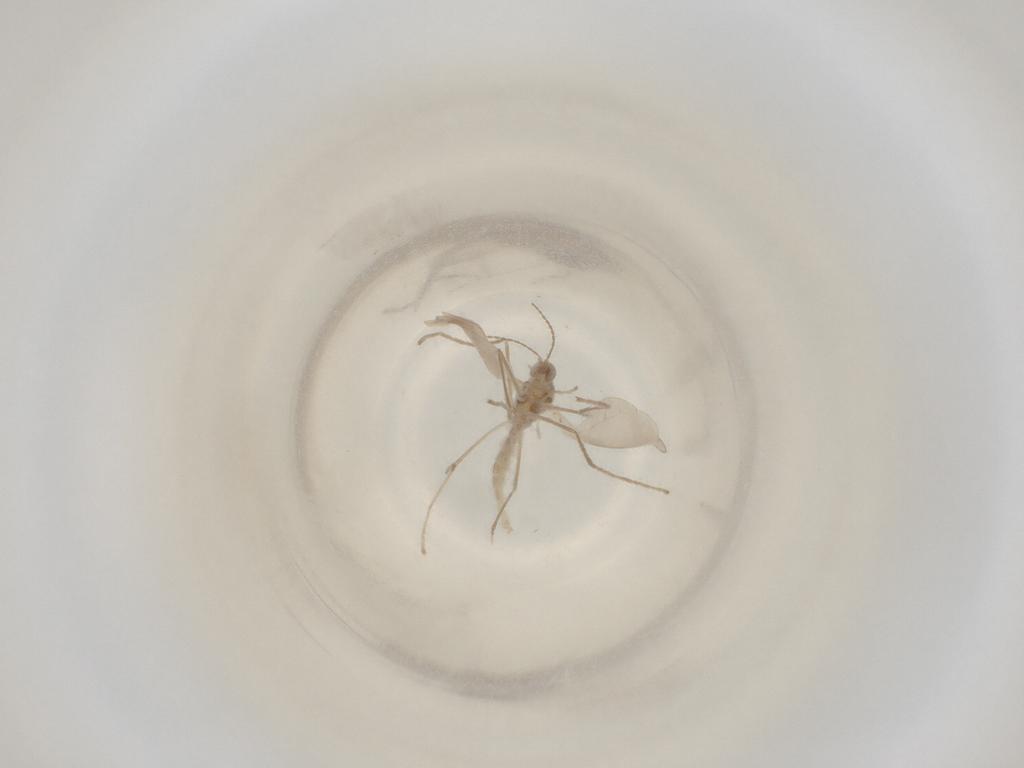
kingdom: Animalia
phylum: Arthropoda
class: Insecta
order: Diptera
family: Cecidomyiidae
